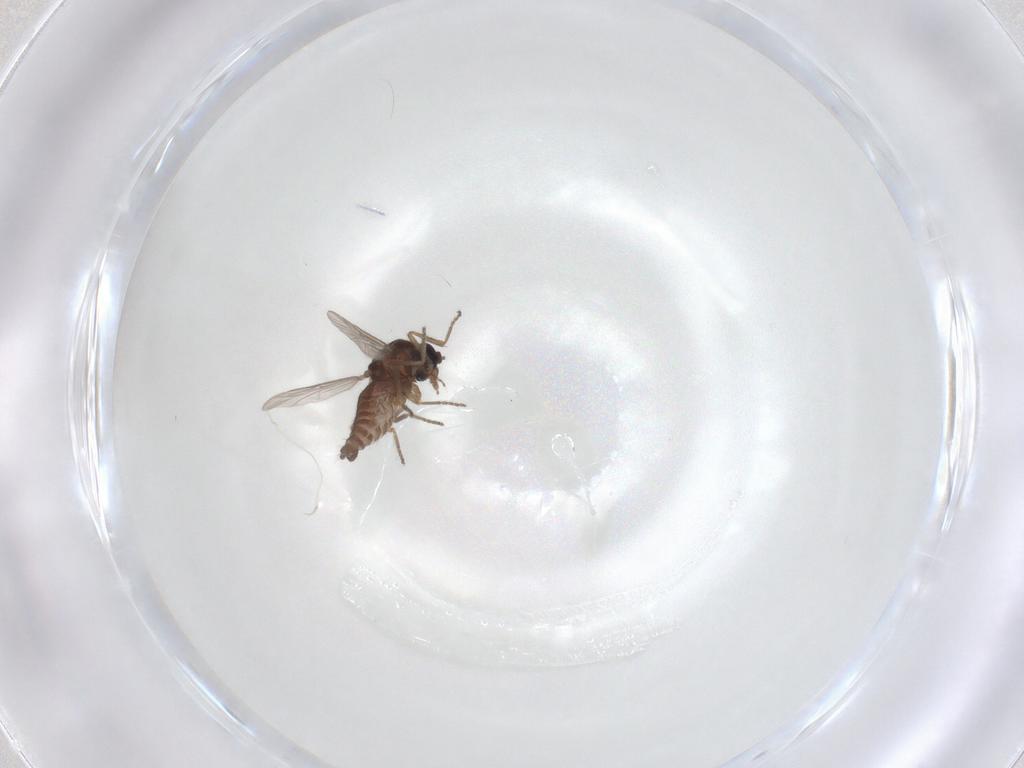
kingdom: Animalia
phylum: Arthropoda
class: Insecta
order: Diptera
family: Ceratopogonidae
